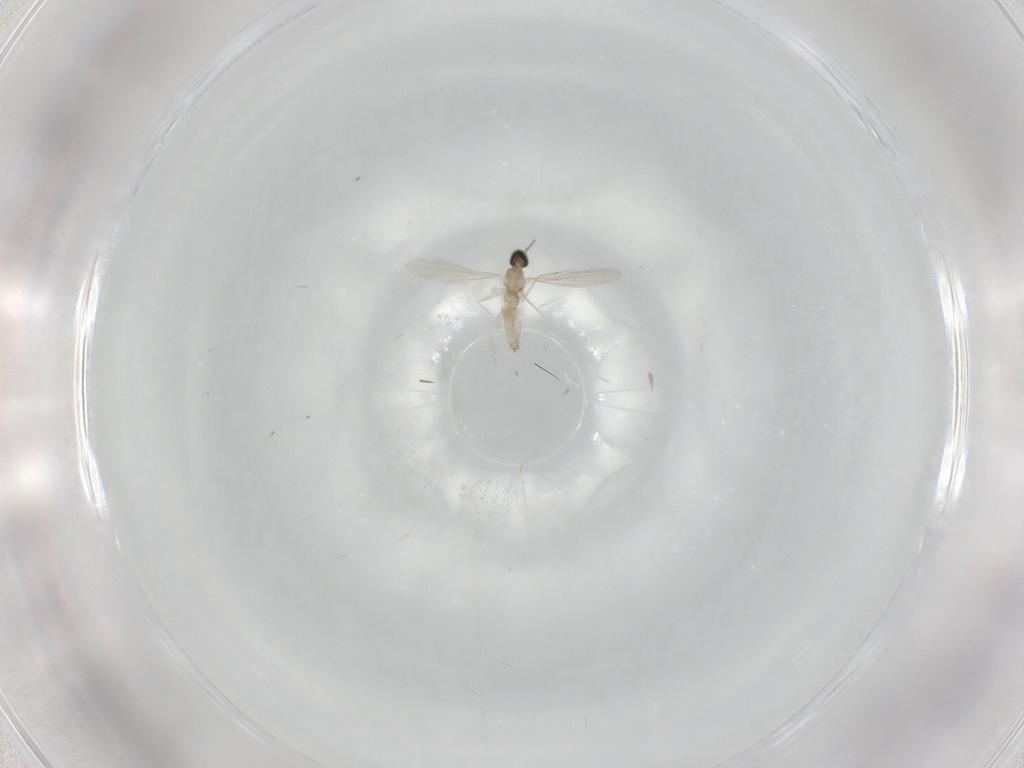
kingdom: Animalia
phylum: Arthropoda
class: Insecta
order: Diptera
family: Cecidomyiidae
